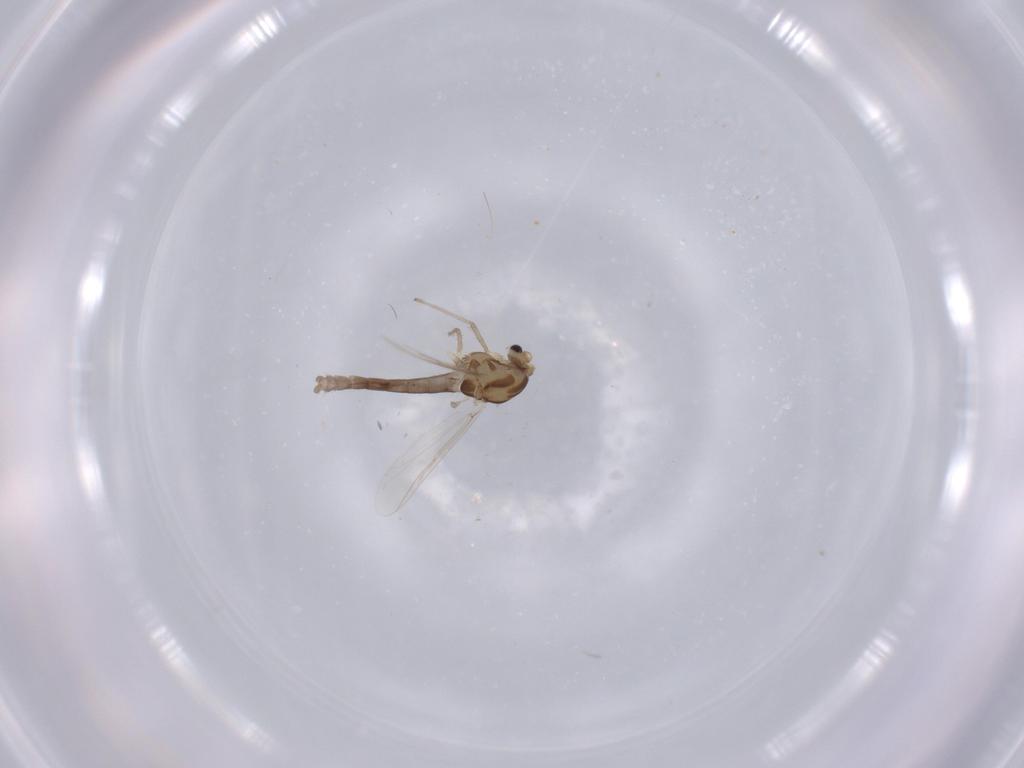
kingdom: Animalia
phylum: Arthropoda
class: Insecta
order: Diptera
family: Chironomidae
